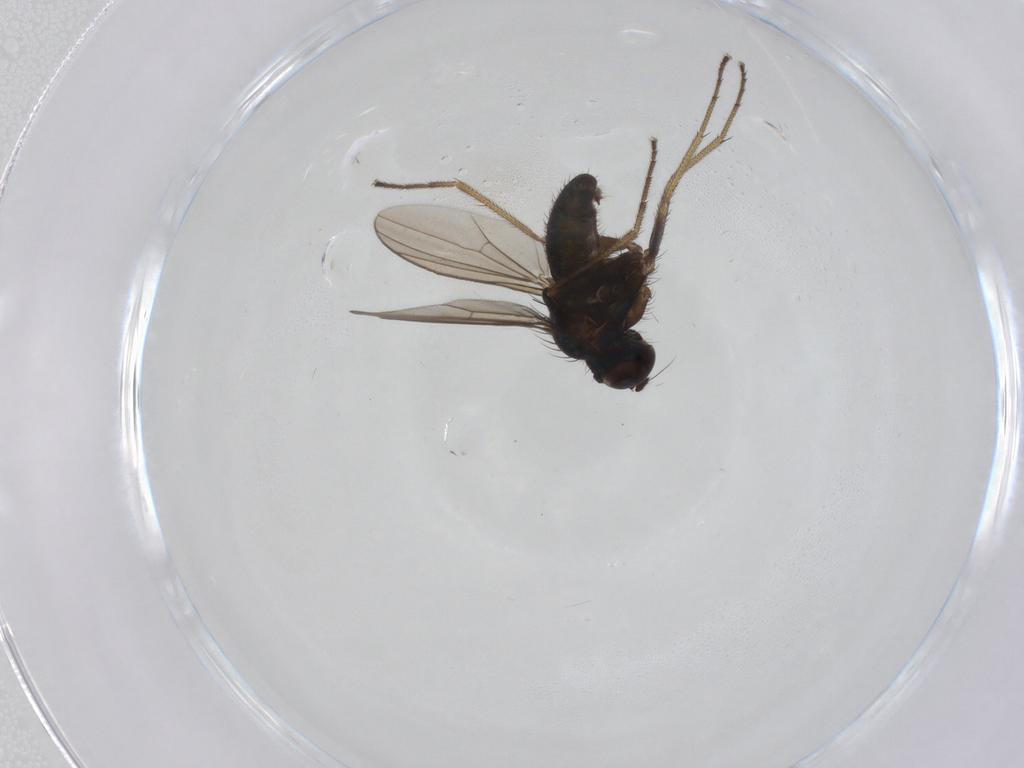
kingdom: Animalia
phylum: Arthropoda
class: Insecta
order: Diptera
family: Dolichopodidae
